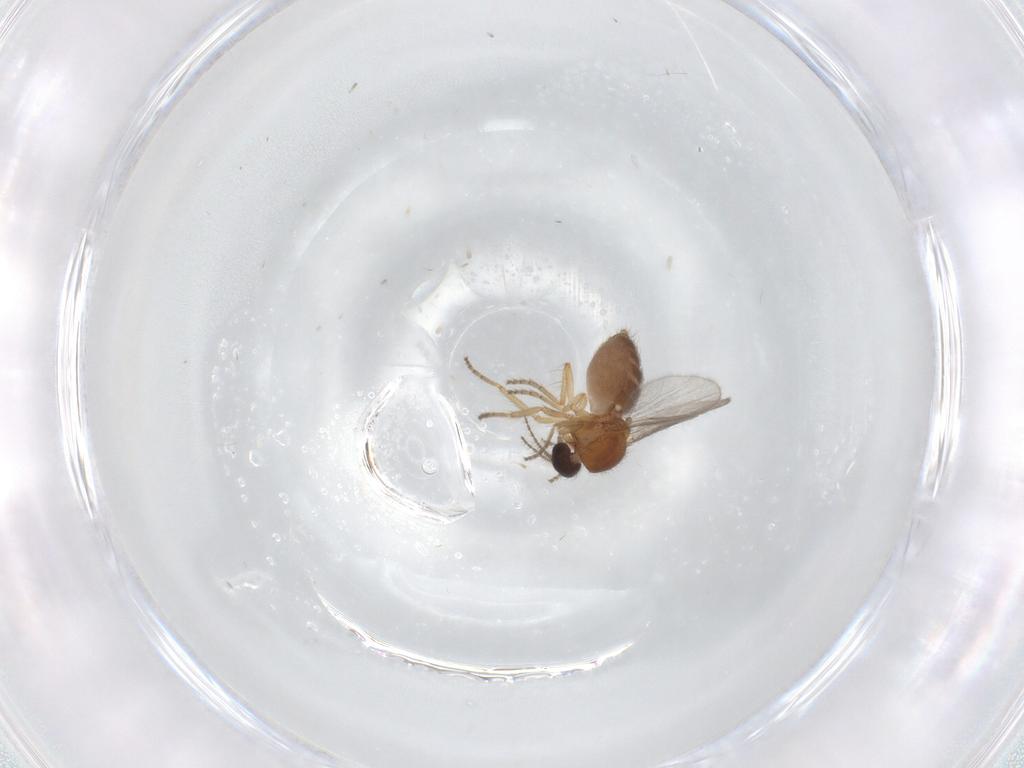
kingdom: Animalia
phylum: Arthropoda
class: Insecta
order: Diptera
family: Ceratopogonidae
